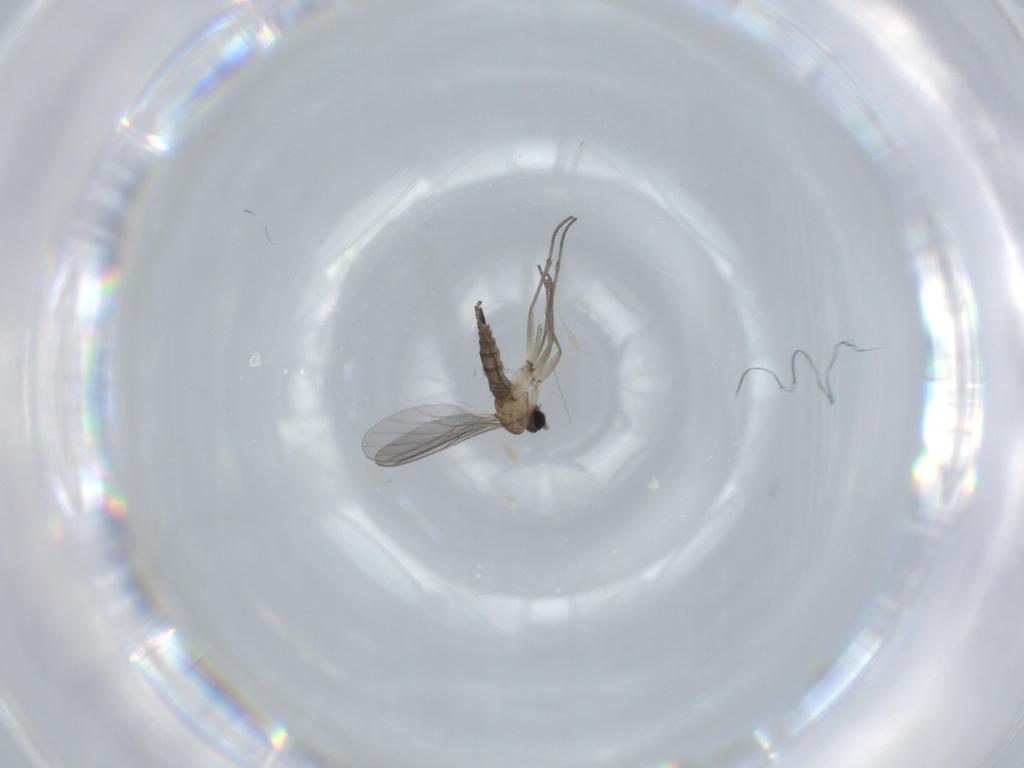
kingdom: Animalia
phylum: Arthropoda
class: Insecta
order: Diptera
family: Sciaridae
